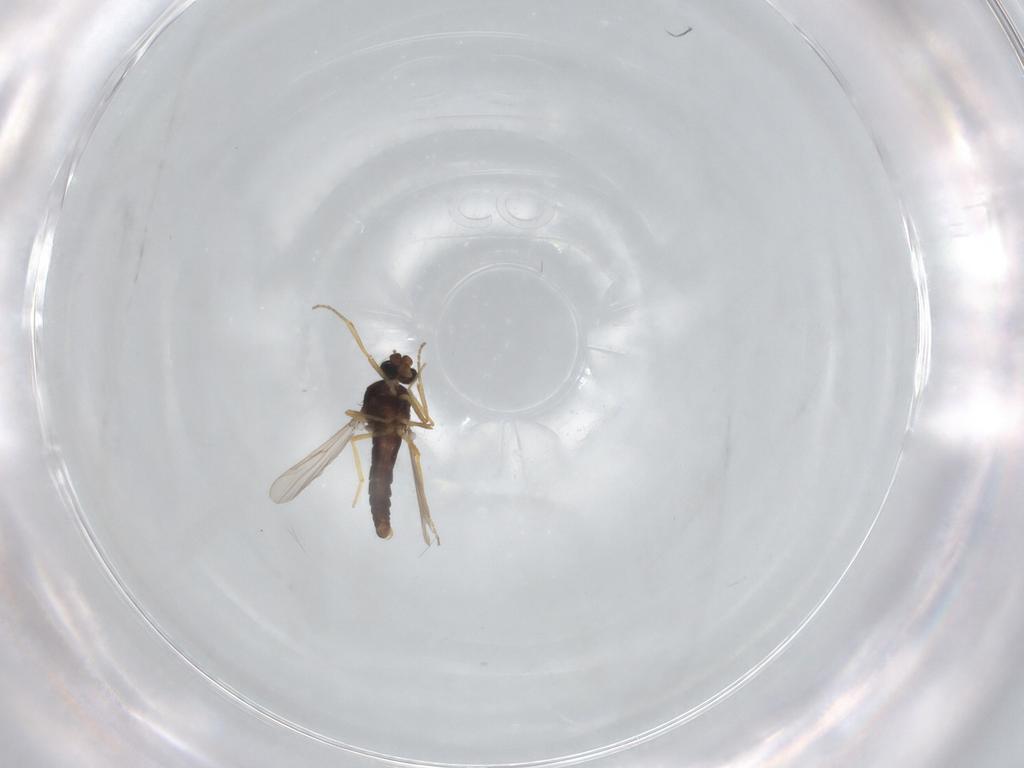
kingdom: Animalia
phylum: Arthropoda
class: Insecta
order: Diptera
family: Ceratopogonidae
